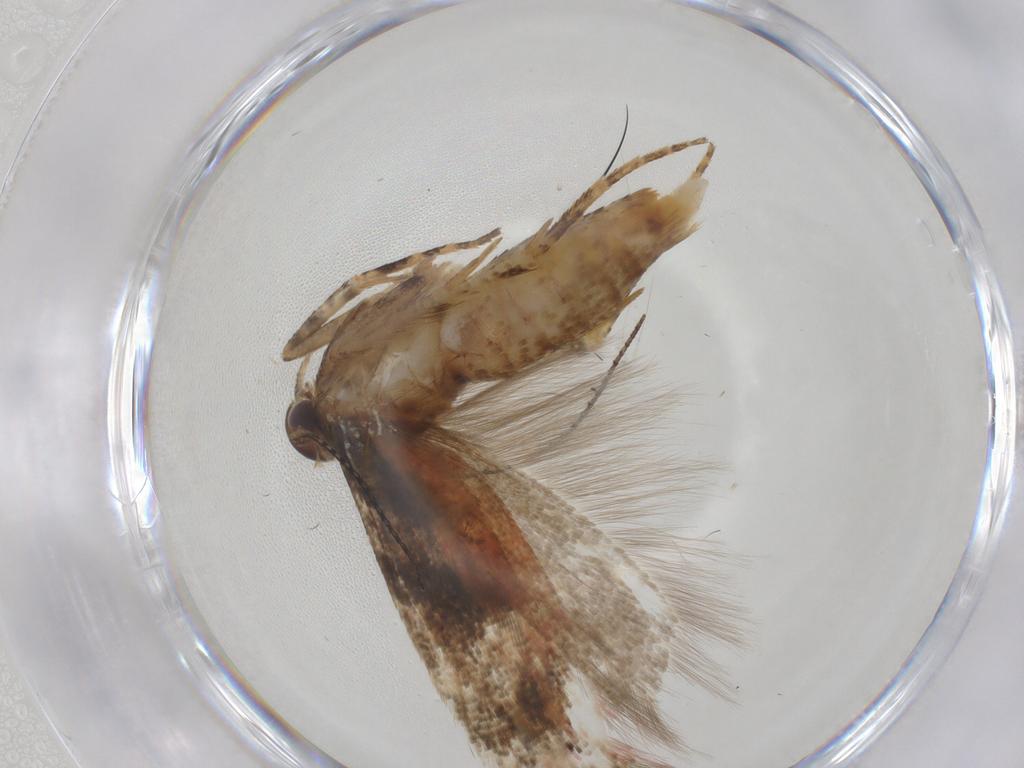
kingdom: Animalia
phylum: Arthropoda
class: Insecta
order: Lepidoptera
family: Gelechiidae
